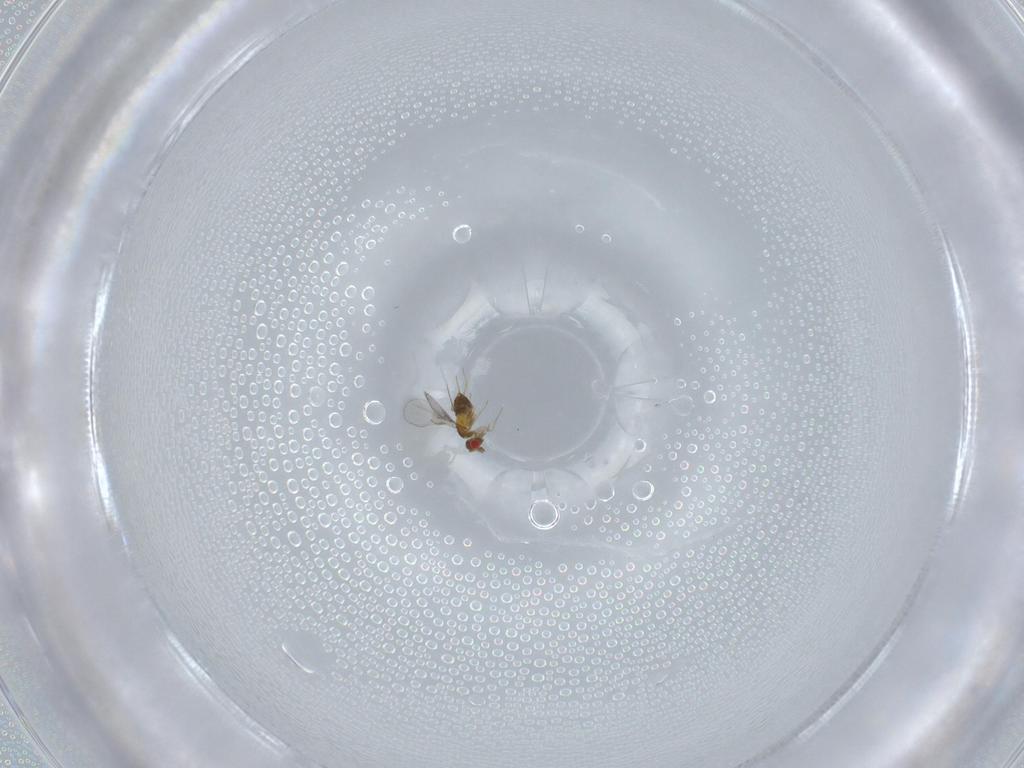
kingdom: Animalia
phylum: Arthropoda
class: Insecta
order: Hymenoptera
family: Trichogrammatidae
